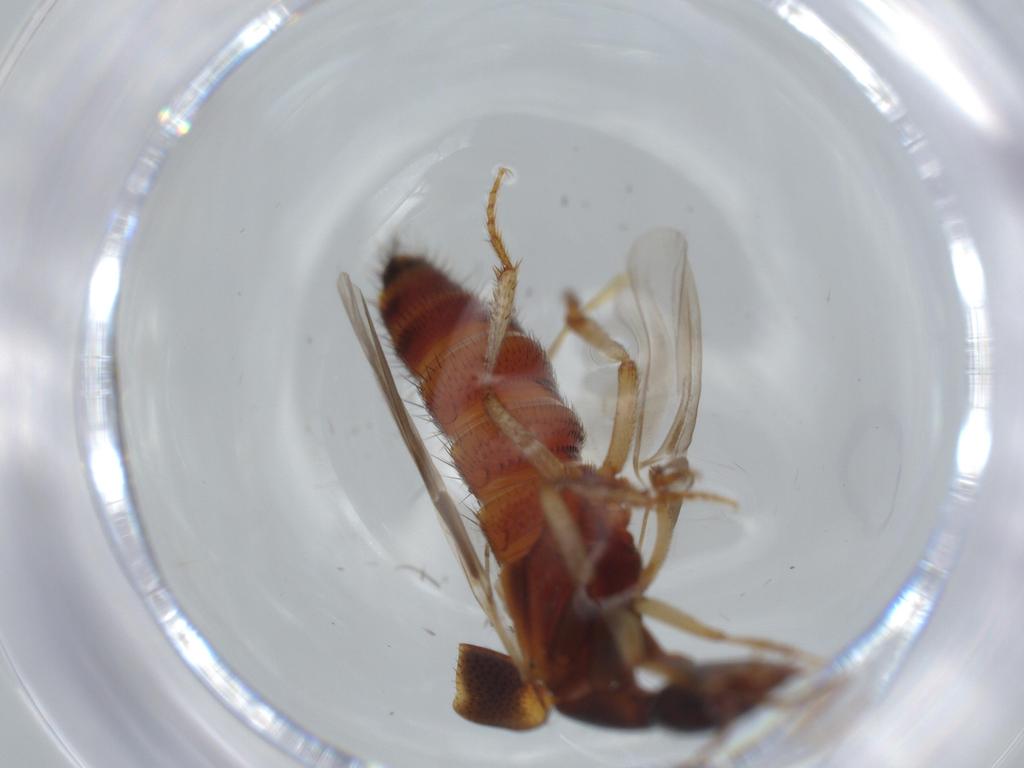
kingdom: Animalia
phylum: Arthropoda
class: Insecta
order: Coleoptera
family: Staphylinidae
